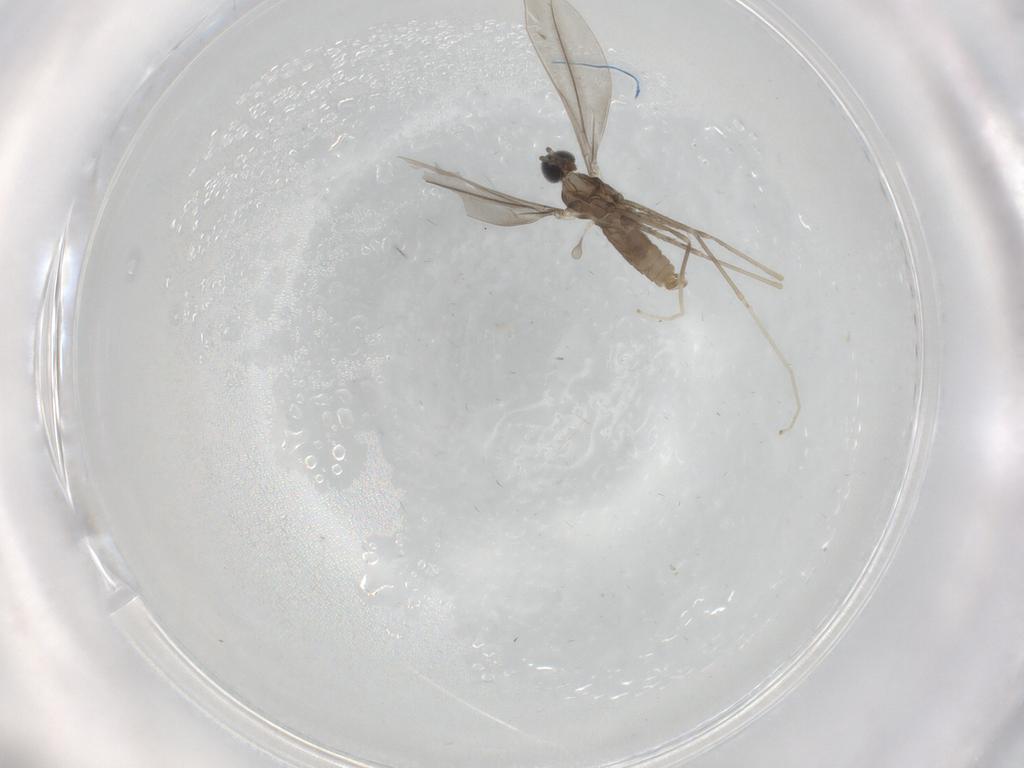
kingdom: Animalia
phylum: Arthropoda
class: Insecta
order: Diptera
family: Cecidomyiidae
